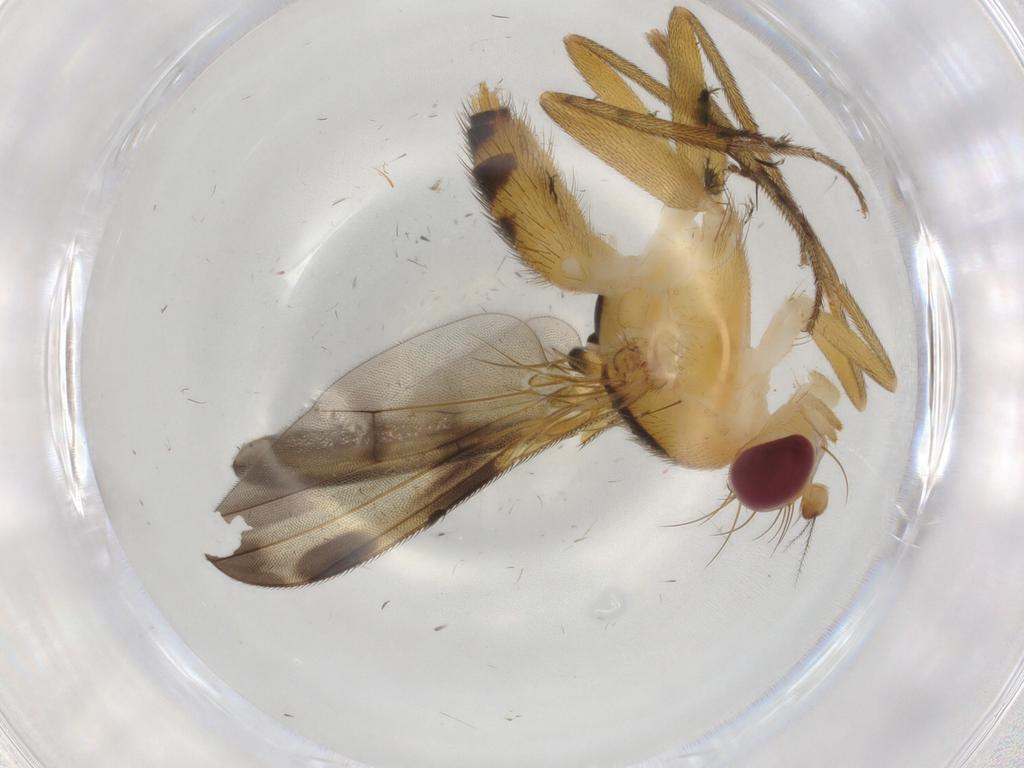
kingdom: Animalia
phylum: Arthropoda
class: Insecta
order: Diptera
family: Clusiidae
